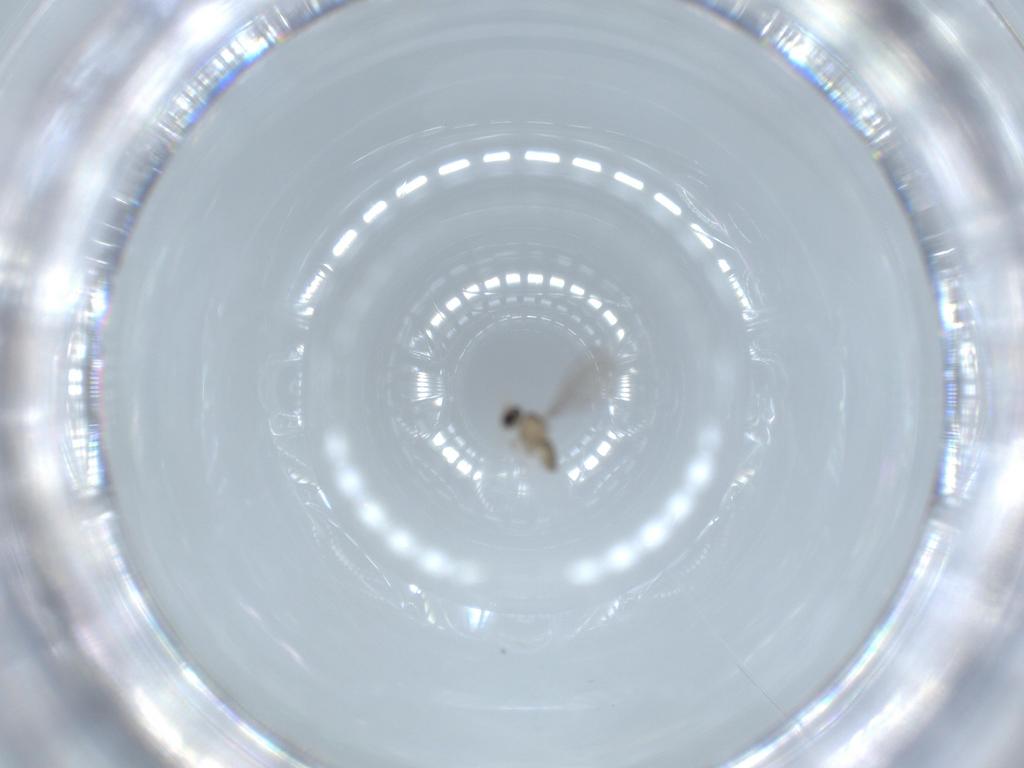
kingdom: Animalia
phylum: Arthropoda
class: Insecta
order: Diptera
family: Cecidomyiidae
